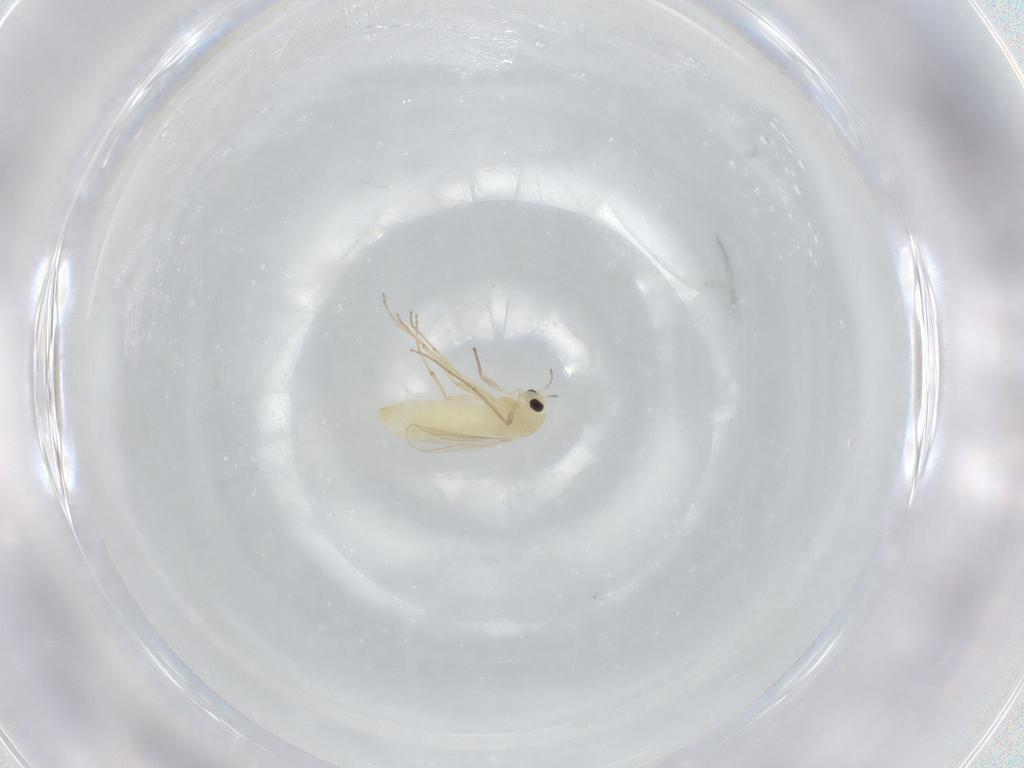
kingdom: Animalia
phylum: Arthropoda
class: Insecta
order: Diptera
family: Chironomidae
